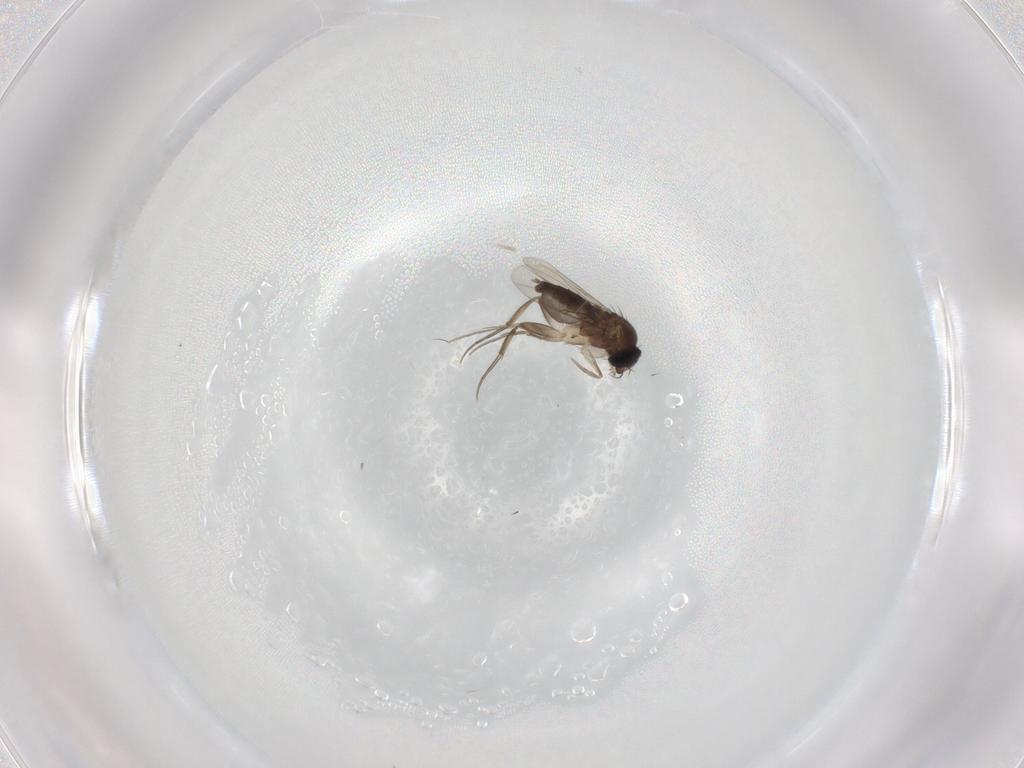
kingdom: Animalia
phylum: Arthropoda
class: Insecta
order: Diptera
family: Phoridae
